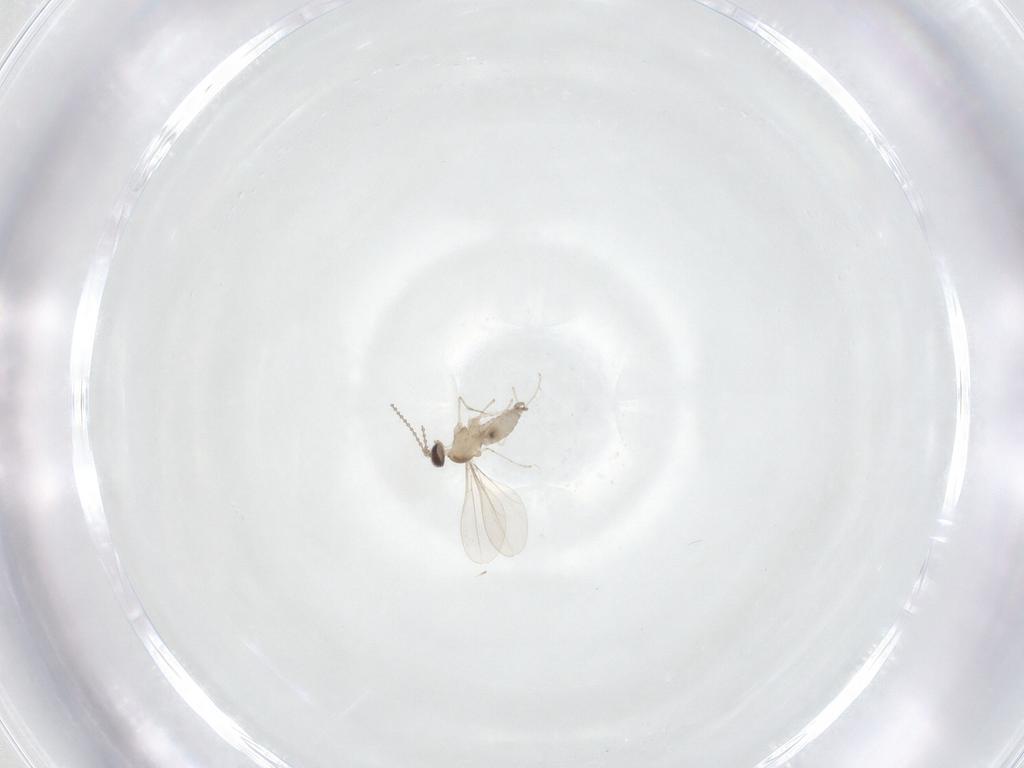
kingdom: Animalia
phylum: Arthropoda
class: Insecta
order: Diptera
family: Cecidomyiidae
